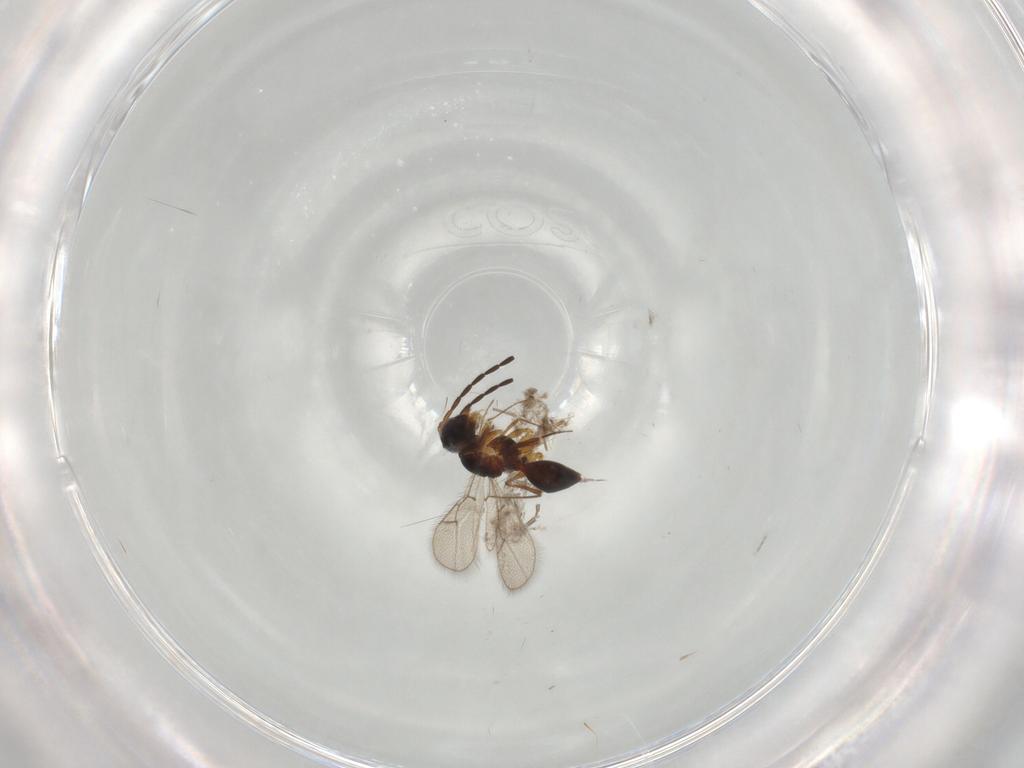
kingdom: Animalia
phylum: Arthropoda
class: Insecta
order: Hymenoptera
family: Figitidae
